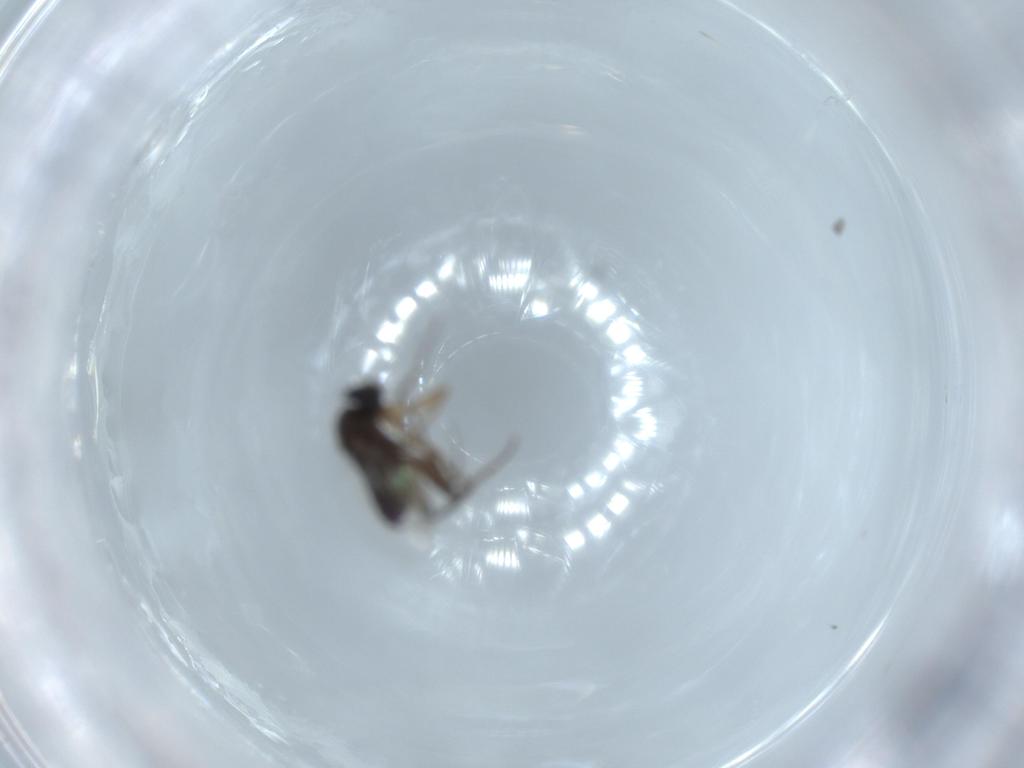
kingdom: Animalia
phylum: Arthropoda
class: Insecta
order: Diptera
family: Phoridae
